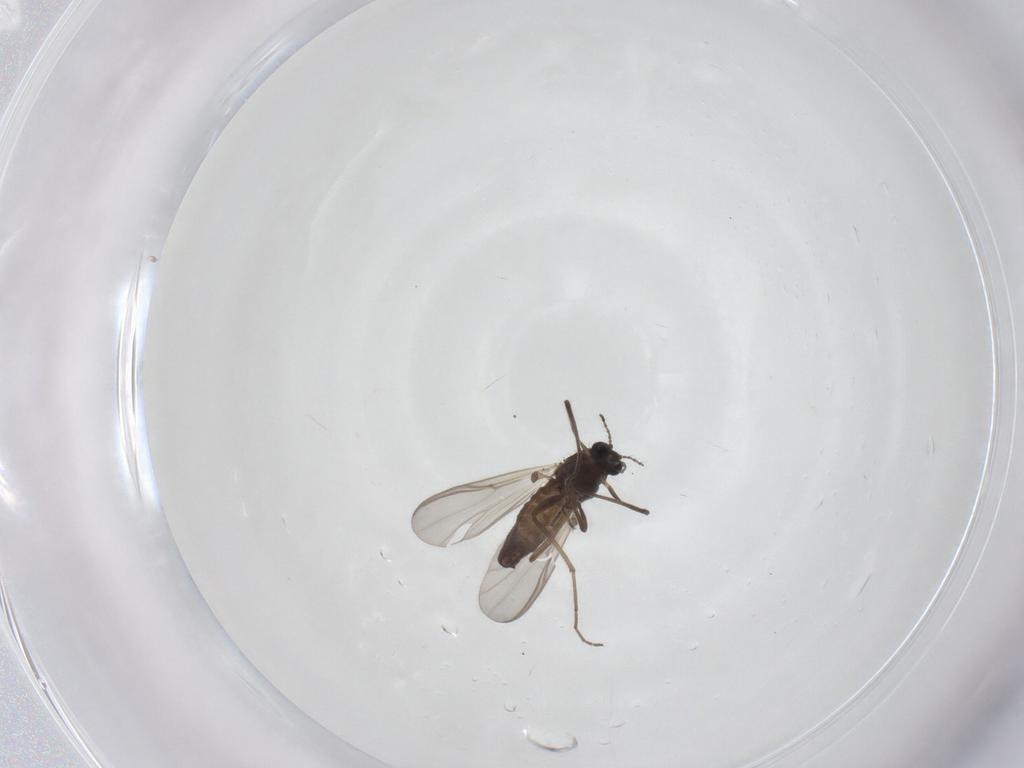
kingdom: Animalia
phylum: Arthropoda
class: Insecta
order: Diptera
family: Chironomidae
